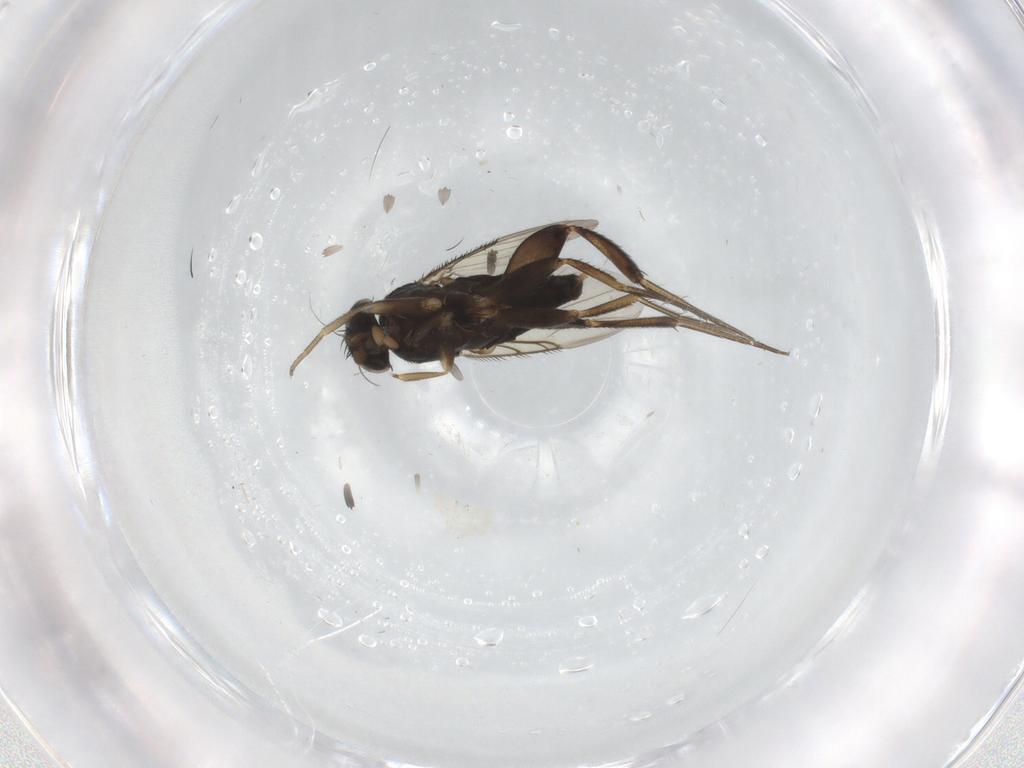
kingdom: Animalia
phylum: Arthropoda
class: Insecta
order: Diptera
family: Phoridae
